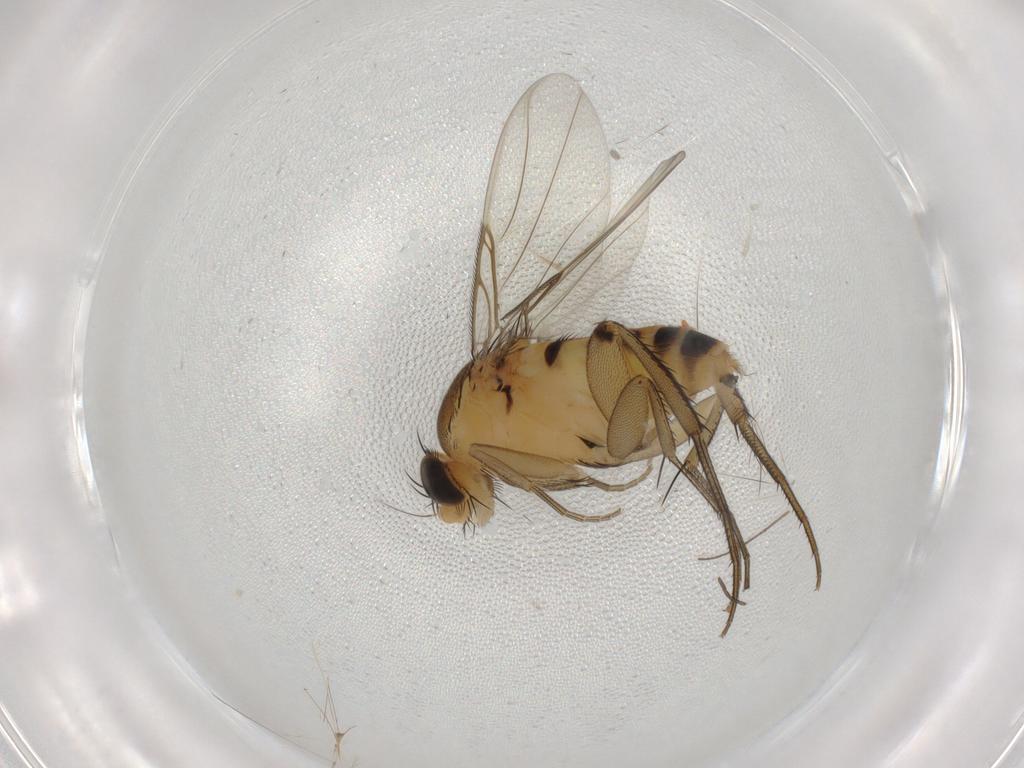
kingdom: Animalia
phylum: Arthropoda
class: Insecta
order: Diptera
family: Phoridae
